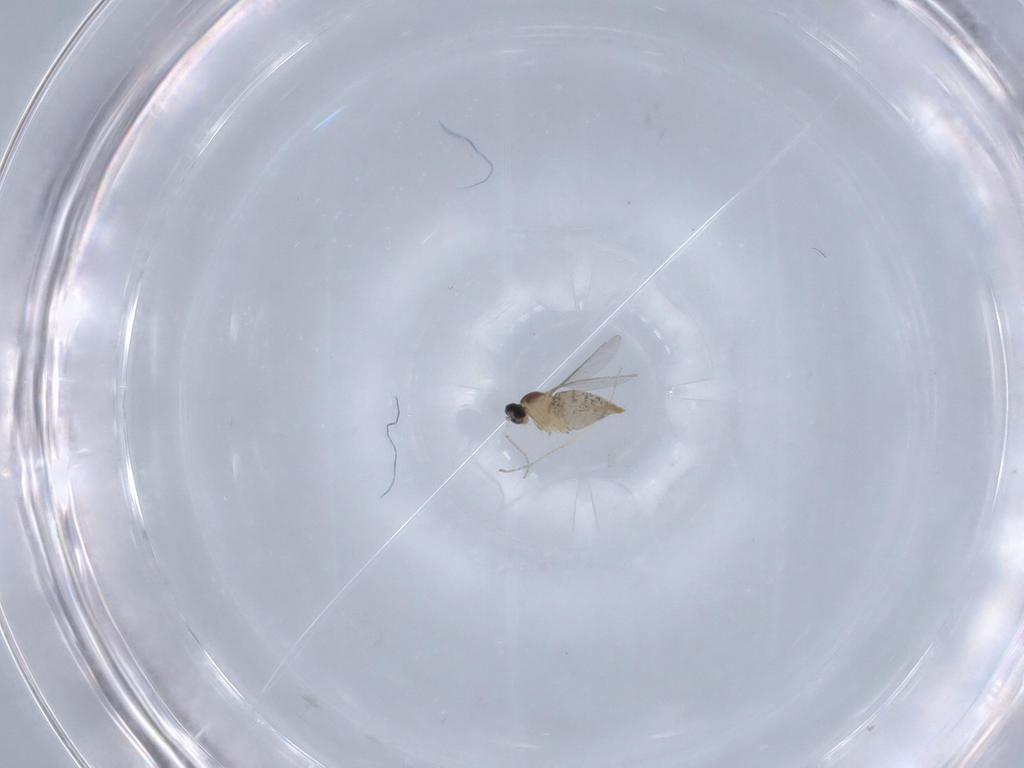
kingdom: Animalia
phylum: Arthropoda
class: Insecta
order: Diptera
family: Cecidomyiidae
